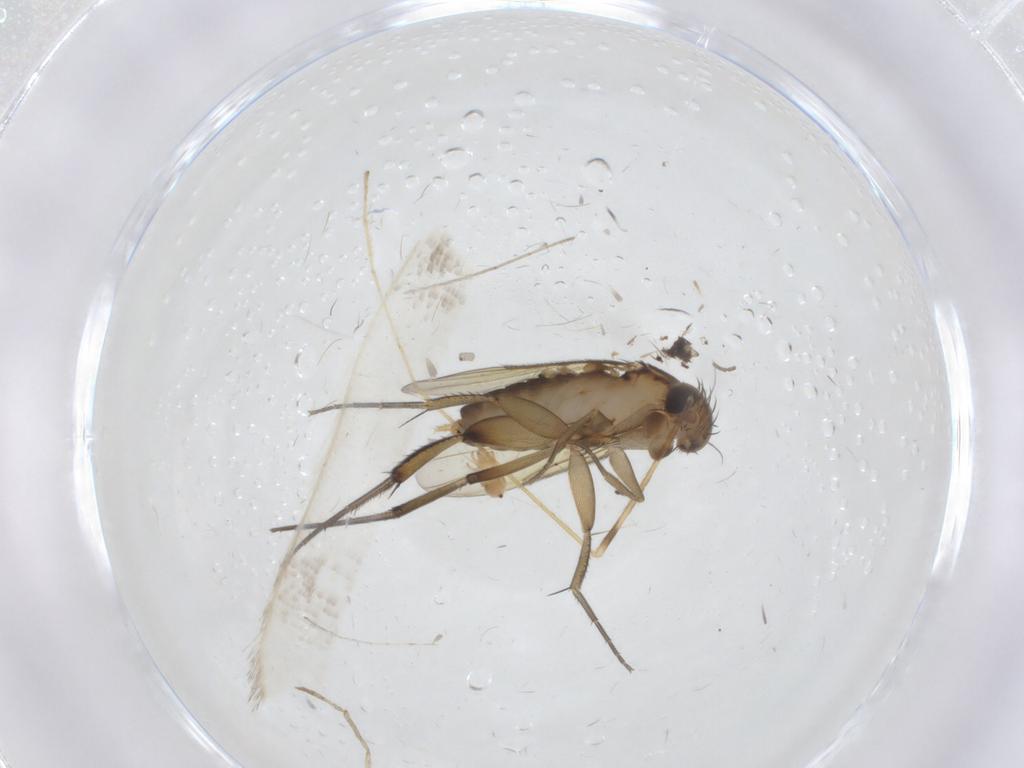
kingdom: Animalia
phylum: Arthropoda
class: Insecta
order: Diptera
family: Phoridae
